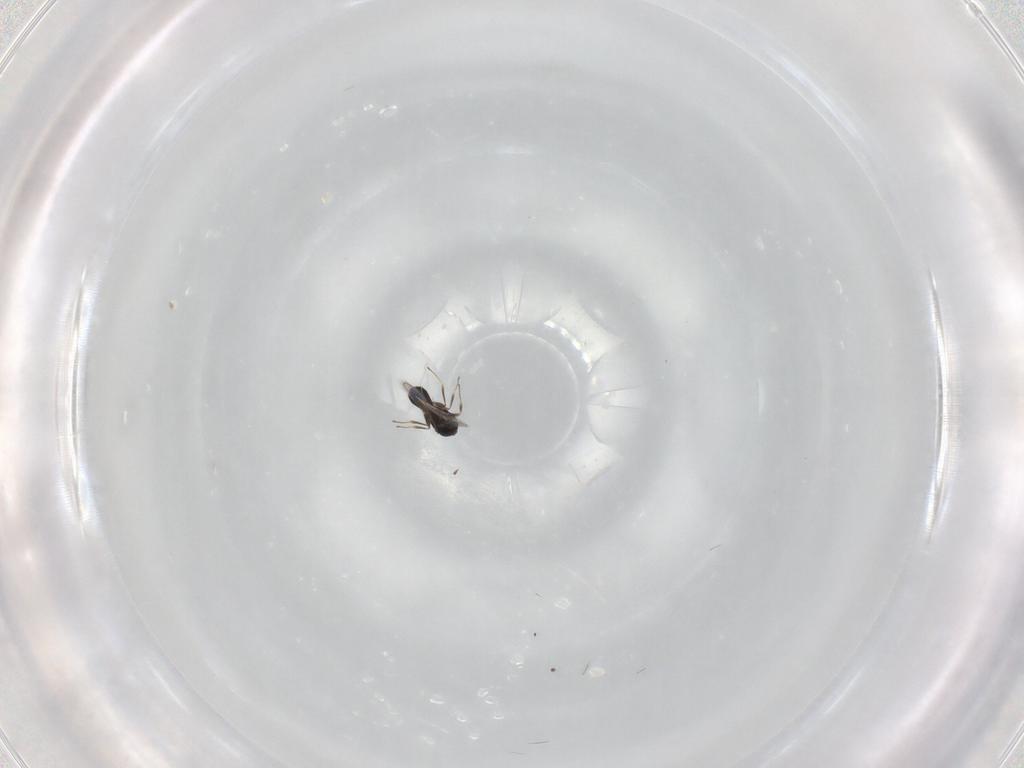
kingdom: Animalia
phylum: Arthropoda
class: Insecta
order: Hymenoptera
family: Scelionidae
